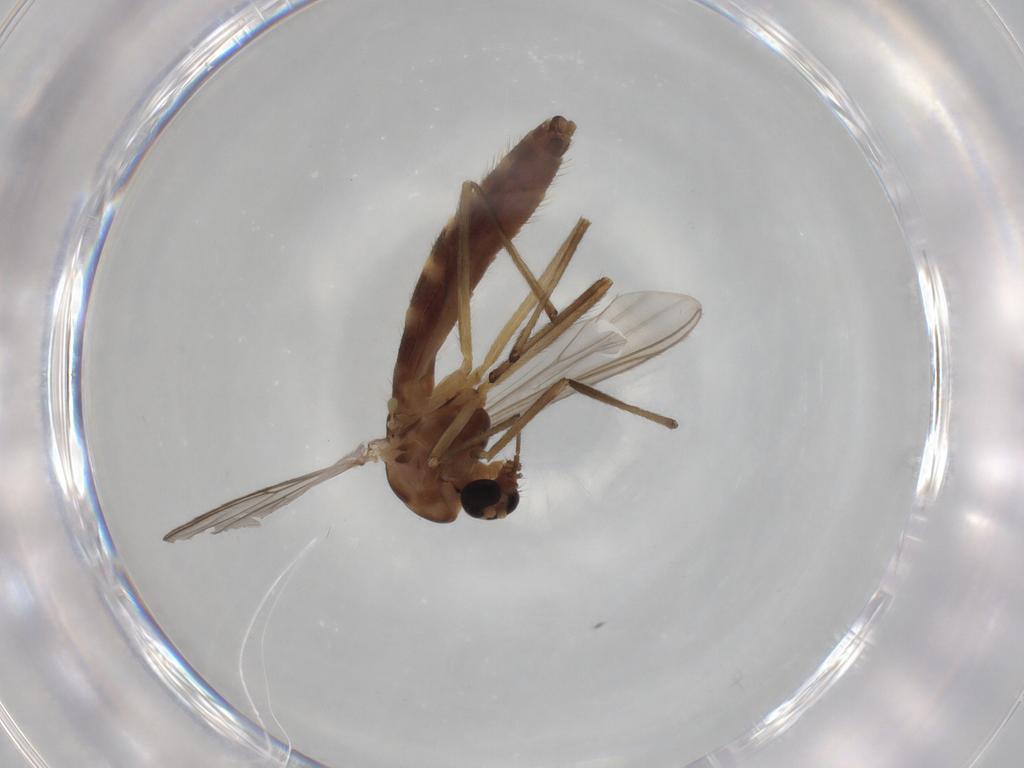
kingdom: Animalia
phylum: Arthropoda
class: Insecta
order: Diptera
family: Chironomidae
